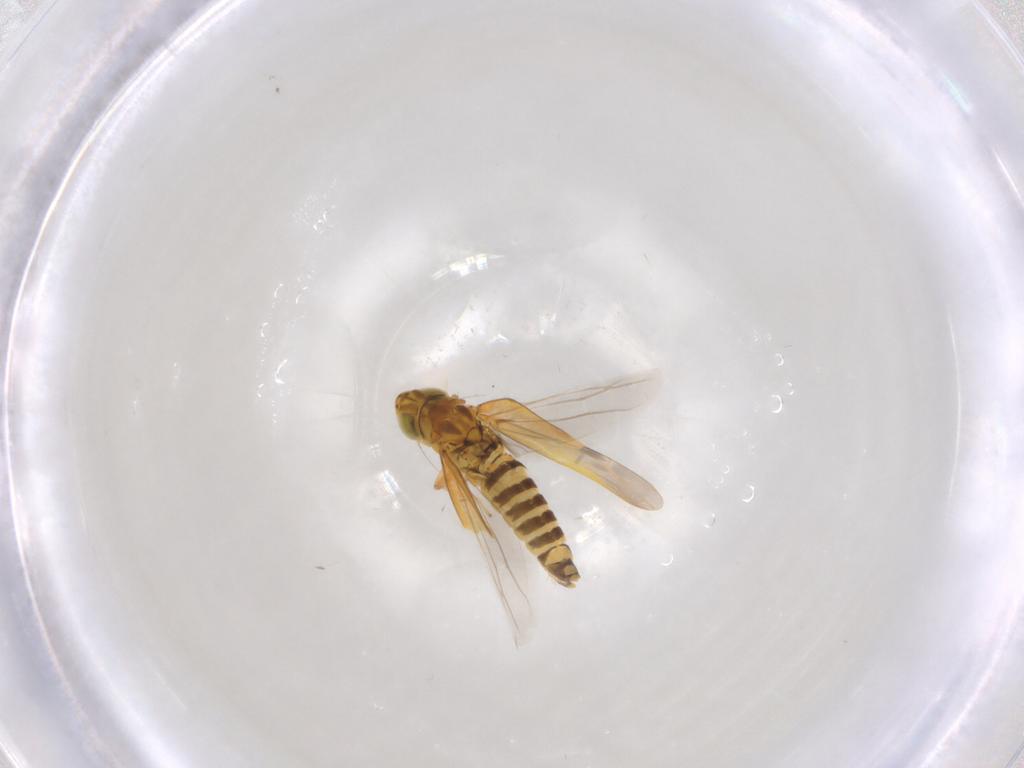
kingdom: Animalia
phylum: Arthropoda
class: Insecta
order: Hemiptera
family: Cicadellidae
